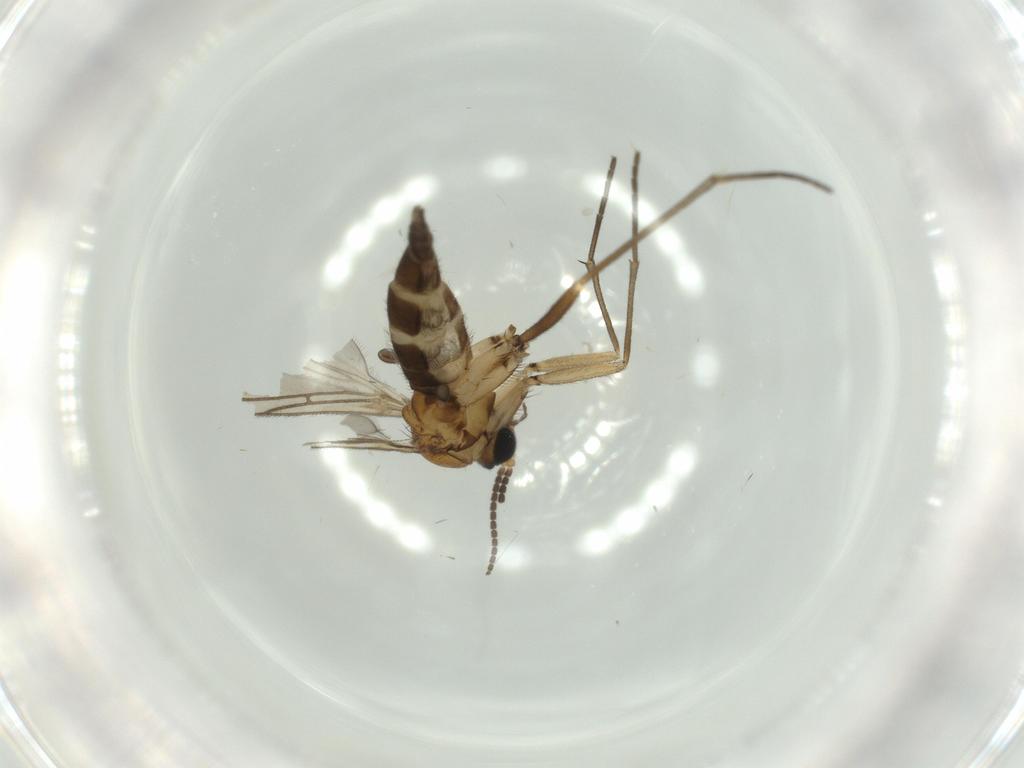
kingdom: Animalia
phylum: Arthropoda
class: Insecta
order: Diptera
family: Sciaridae
